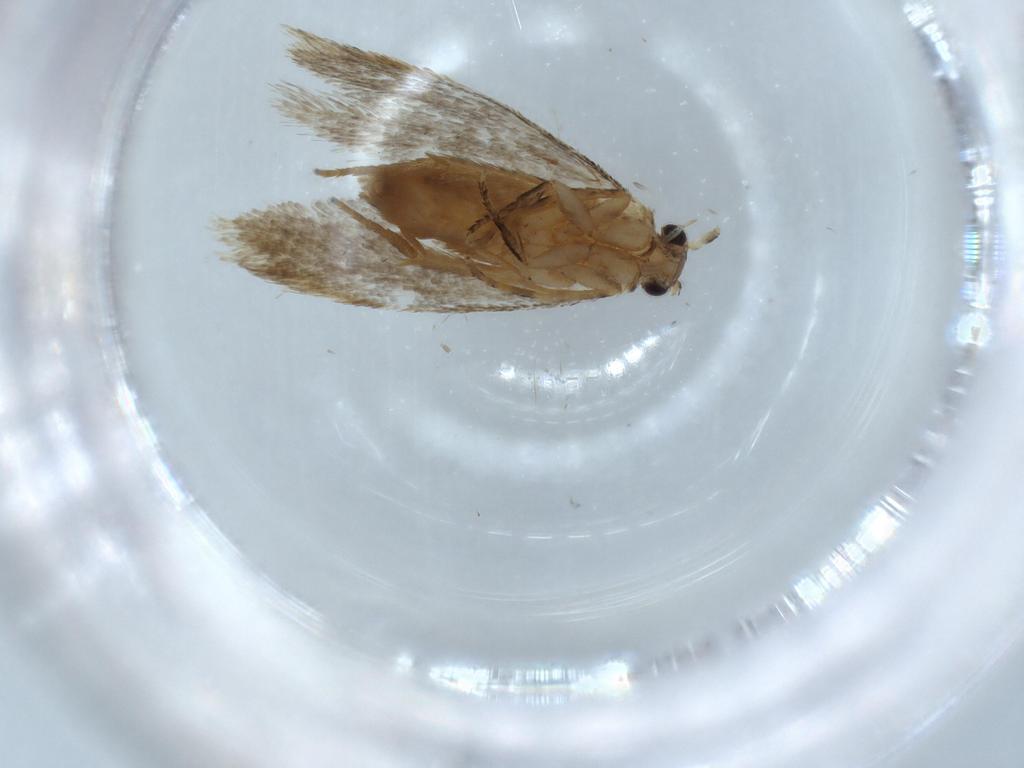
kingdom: Animalia
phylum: Arthropoda
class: Insecta
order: Lepidoptera
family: Tineidae
